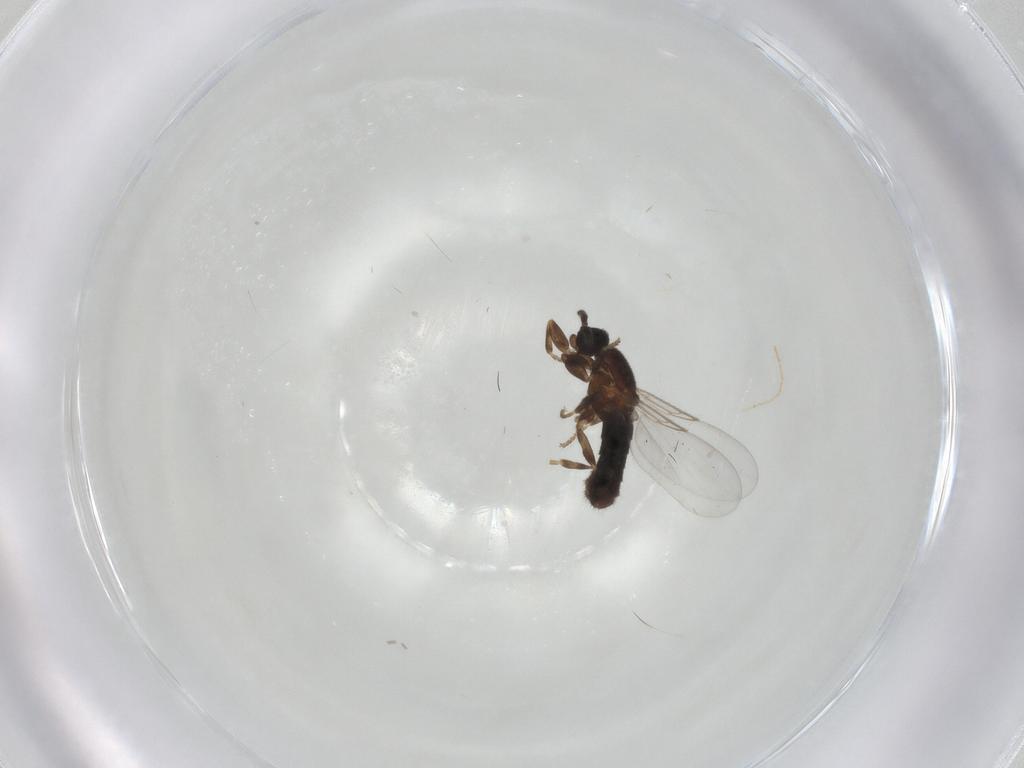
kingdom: Animalia
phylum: Arthropoda
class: Insecta
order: Diptera
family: Scatopsidae
